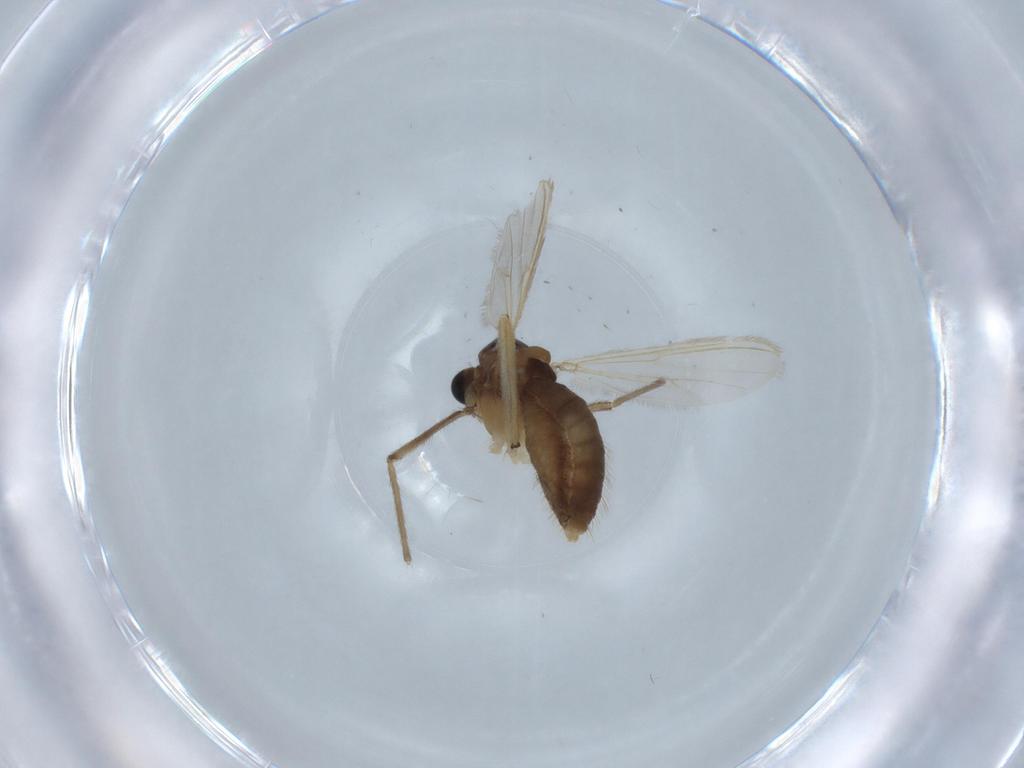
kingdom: Animalia
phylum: Arthropoda
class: Insecta
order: Diptera
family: Chironomidae
